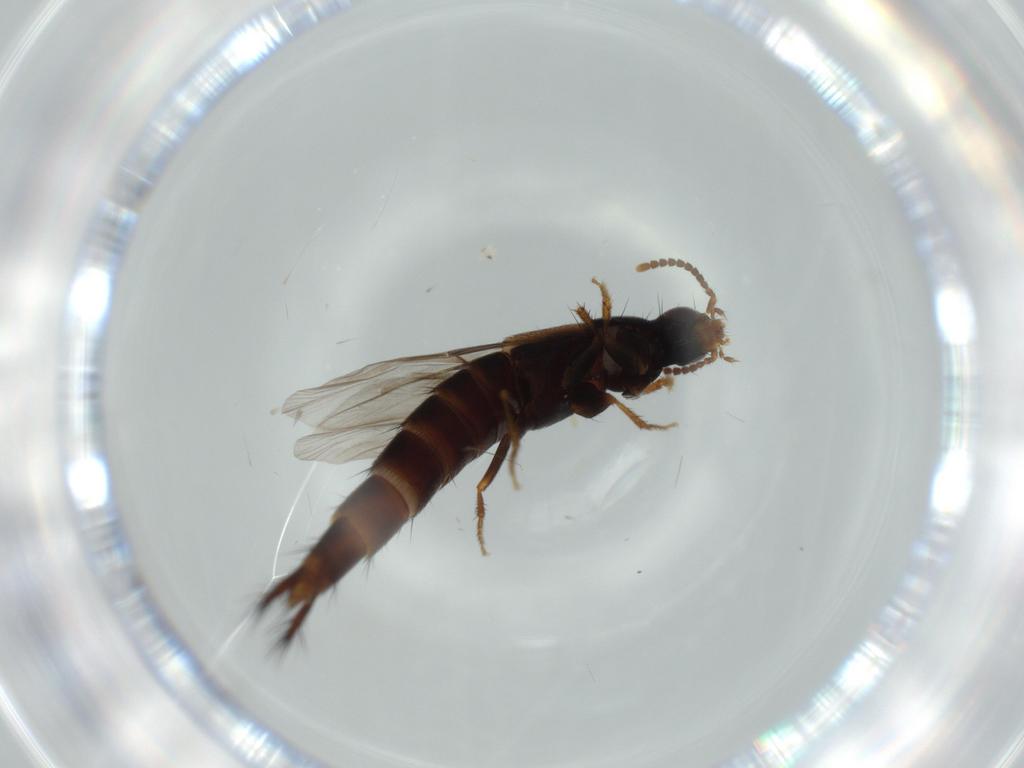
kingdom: Animalia
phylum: Arthropoda
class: Insecta
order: Coleoptera
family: Staphylinidae
